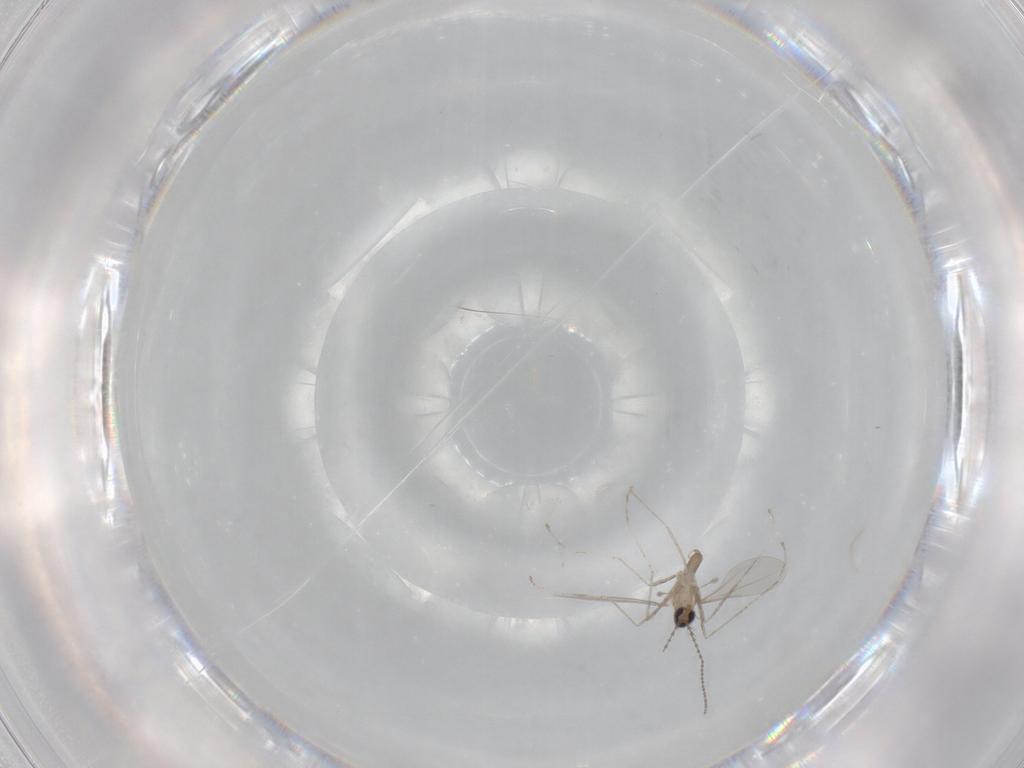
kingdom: Animalia
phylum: Arthropoda
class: Insecta
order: Diptera
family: Cecidomyiidae
